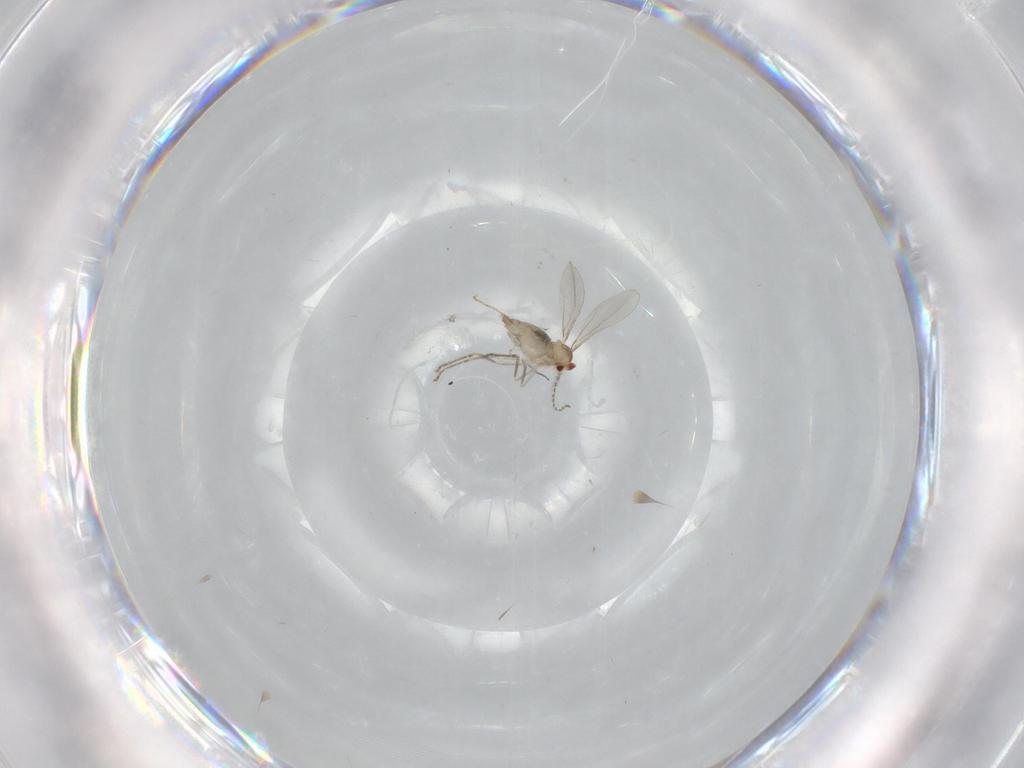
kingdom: Animalia
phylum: Arthropoda
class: Insecta
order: Diptera
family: Cecidomyiidae
